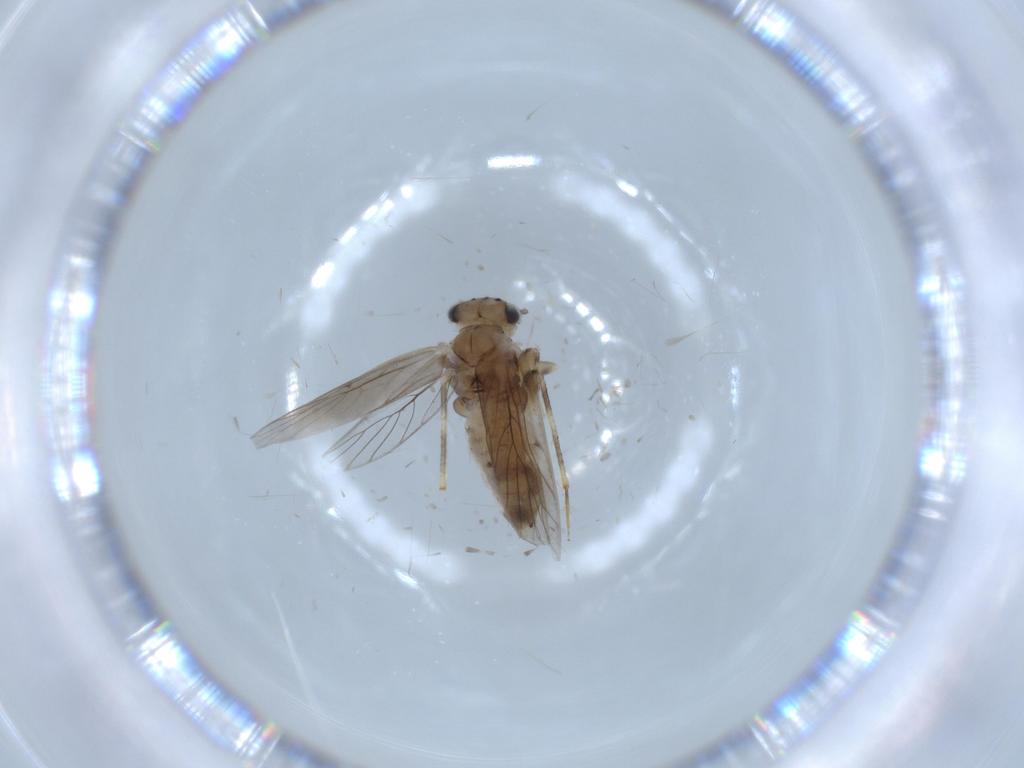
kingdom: Animalia
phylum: Arthropoda
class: Insecta
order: Psocodea
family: Lepidopsocidae
